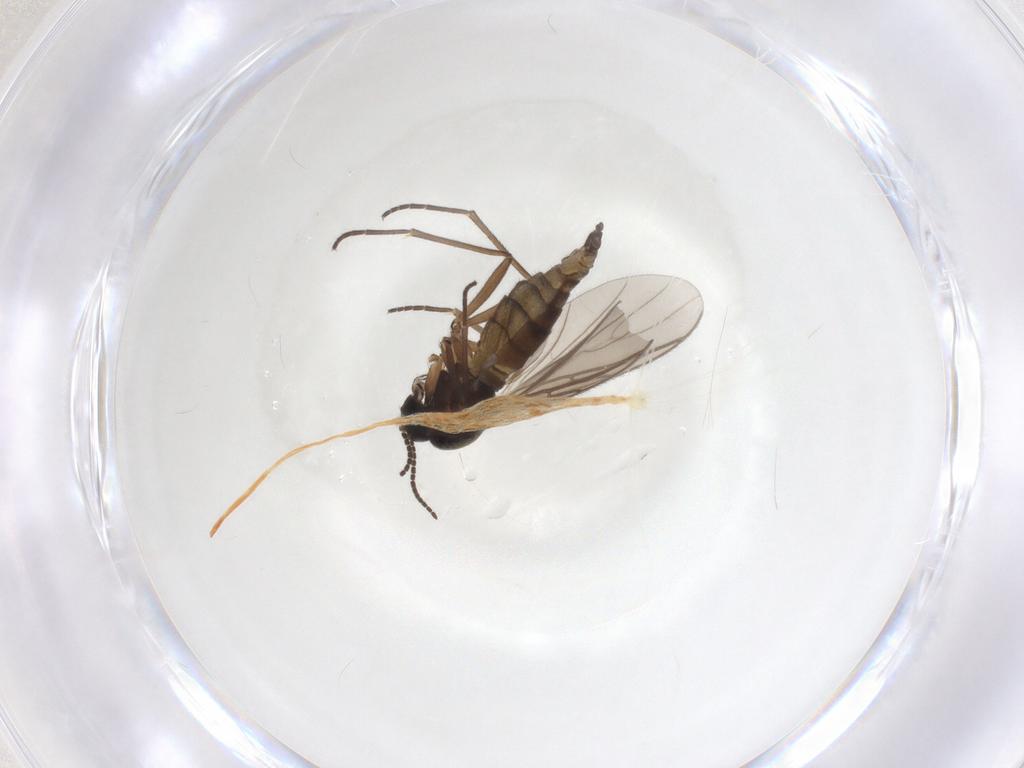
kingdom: Animalia
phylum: Arthropoda
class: Insecta
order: Diptera
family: Sciaridae
